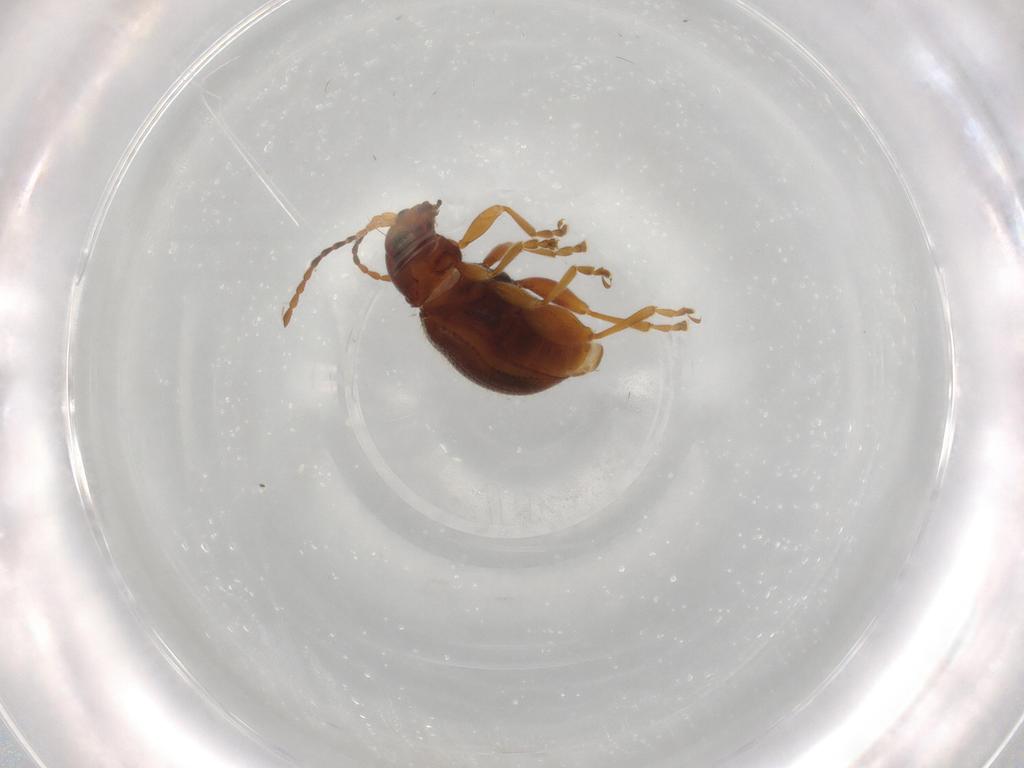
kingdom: Animalia
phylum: Arthropoda
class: Insecta
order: Coleoptera
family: Chrysomelidae
